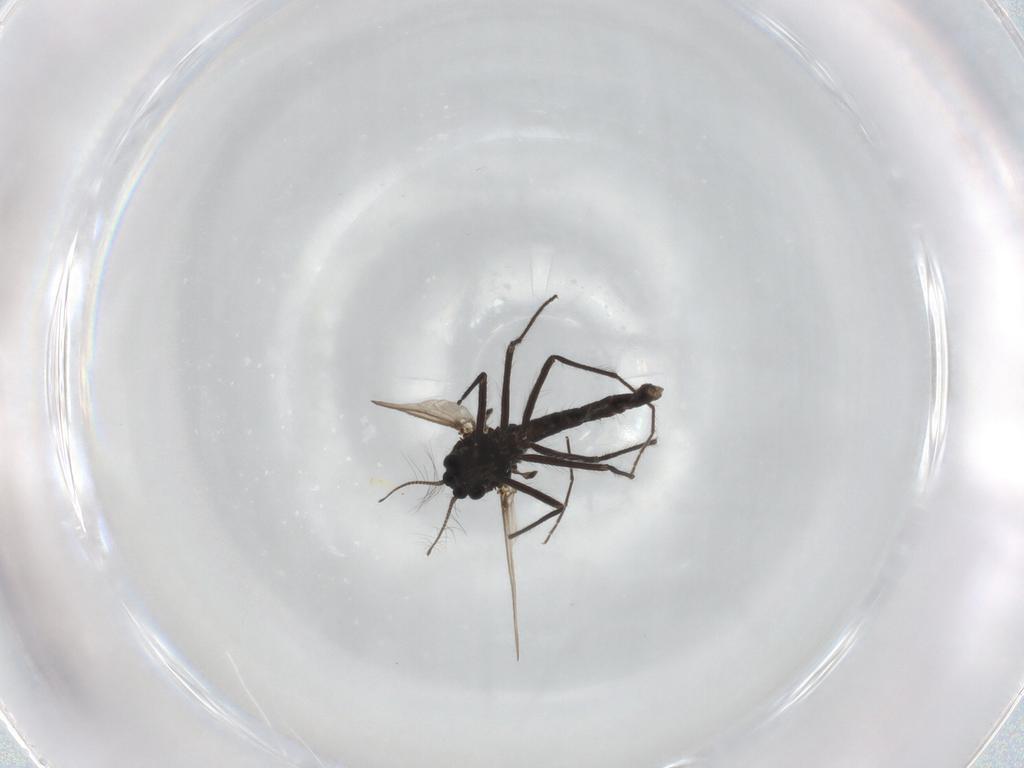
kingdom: Animalia
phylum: Arthropoda
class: Insecta
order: Diptera
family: Chironomidae
